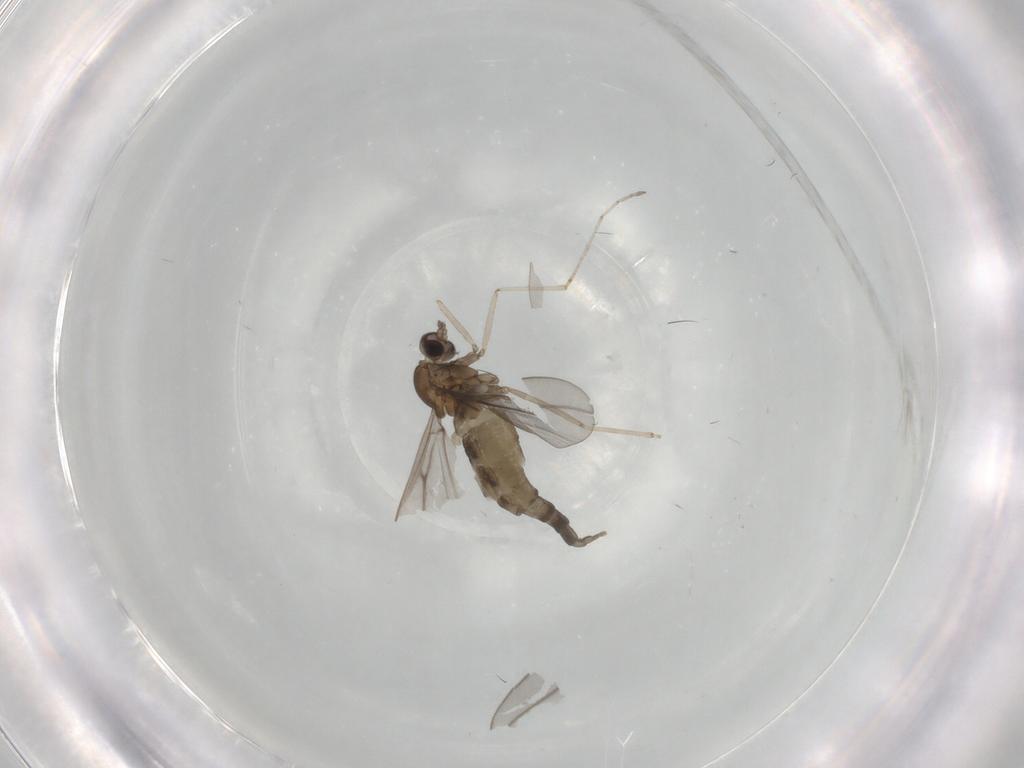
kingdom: Animalia
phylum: Arthropoda
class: Insecta
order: Diptera
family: Cecidomyiidae
